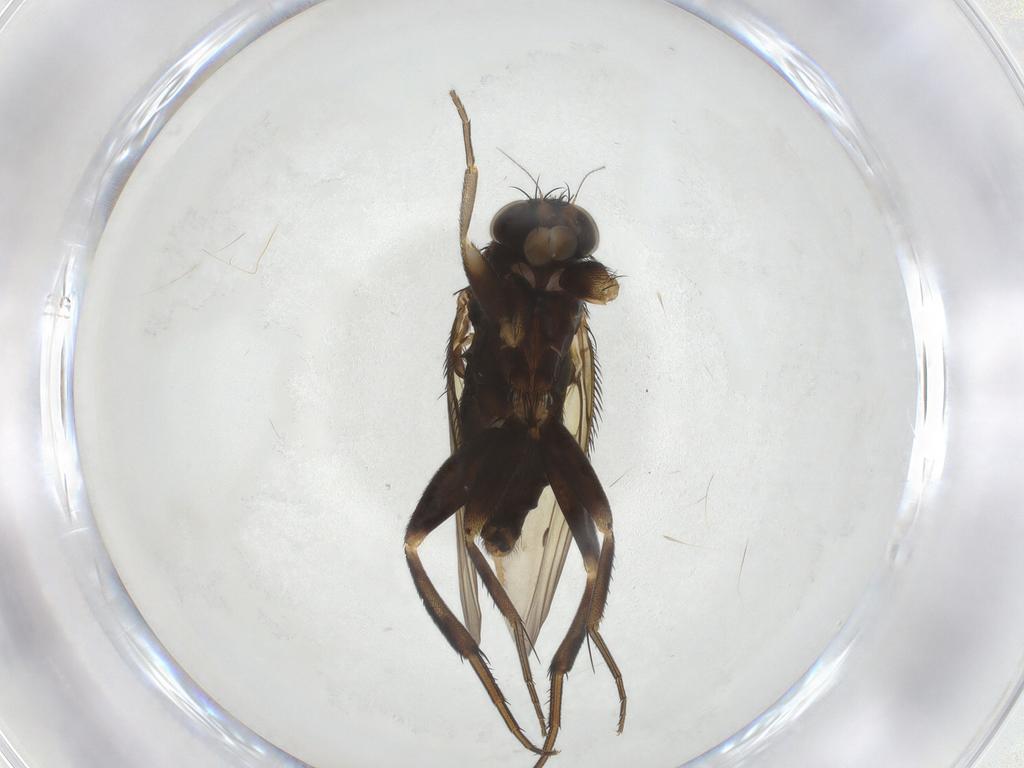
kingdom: Animalia
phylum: Arthropoda
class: Insecta
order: Diptera
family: Phoridae
